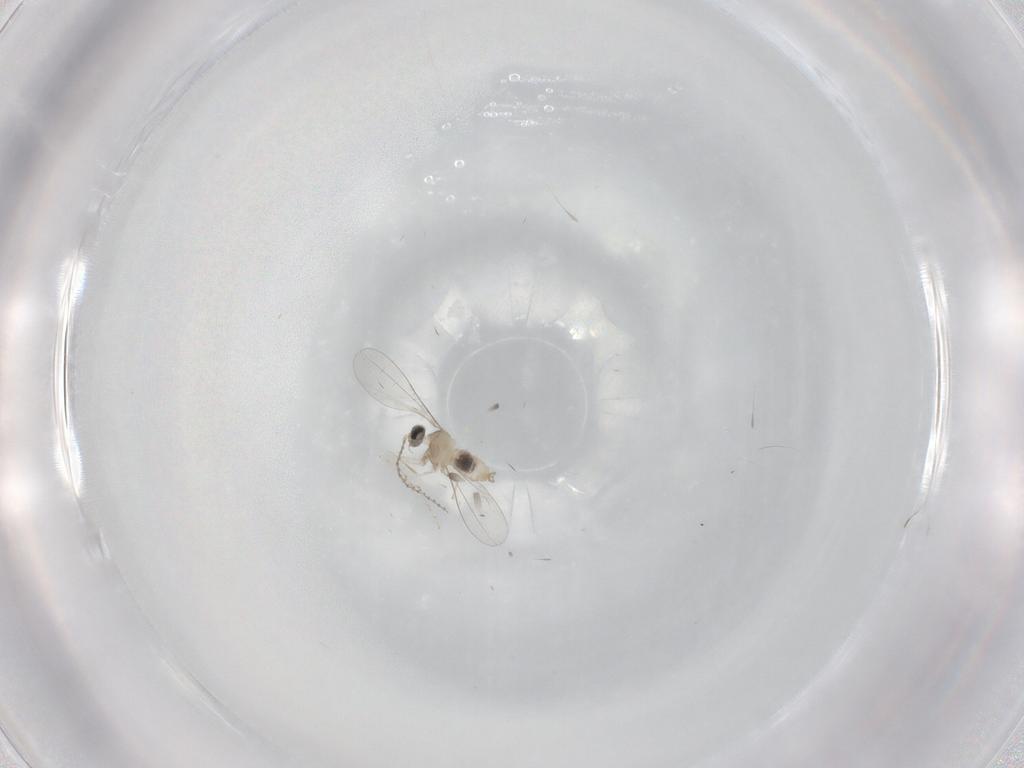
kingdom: Animalia
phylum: Arthropoda
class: Insecta
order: Diptera
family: Cecidomyiidae
